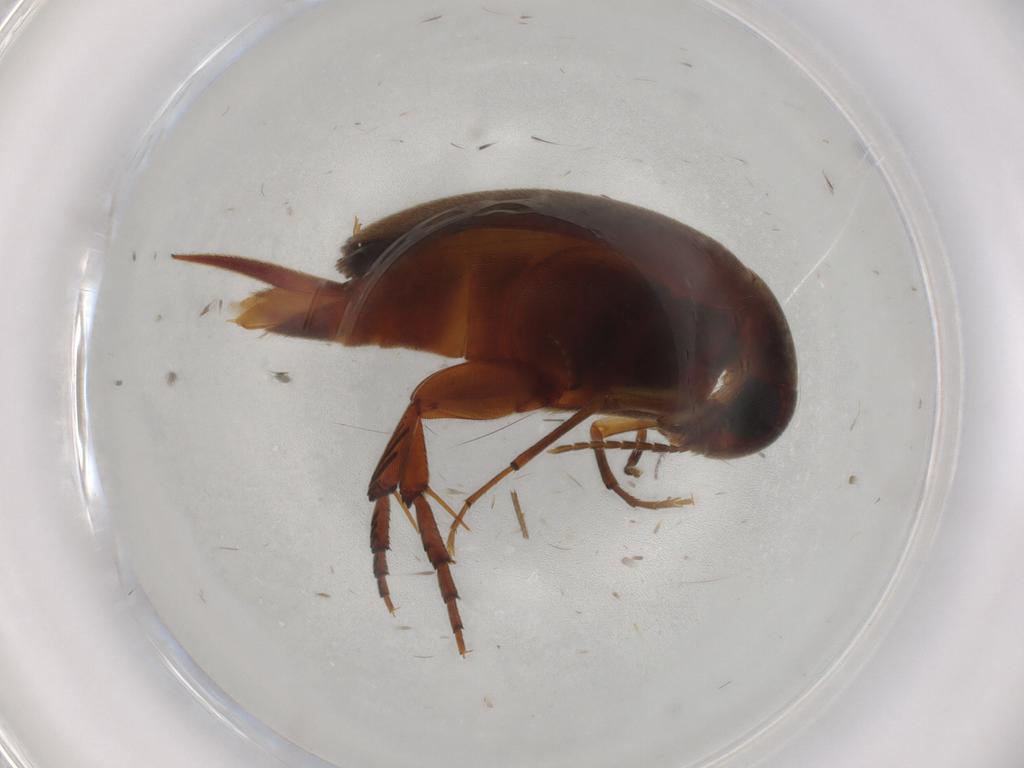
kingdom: Animalia
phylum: Arthropoda
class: Insecta
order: Coleoptera
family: Mordellidae
